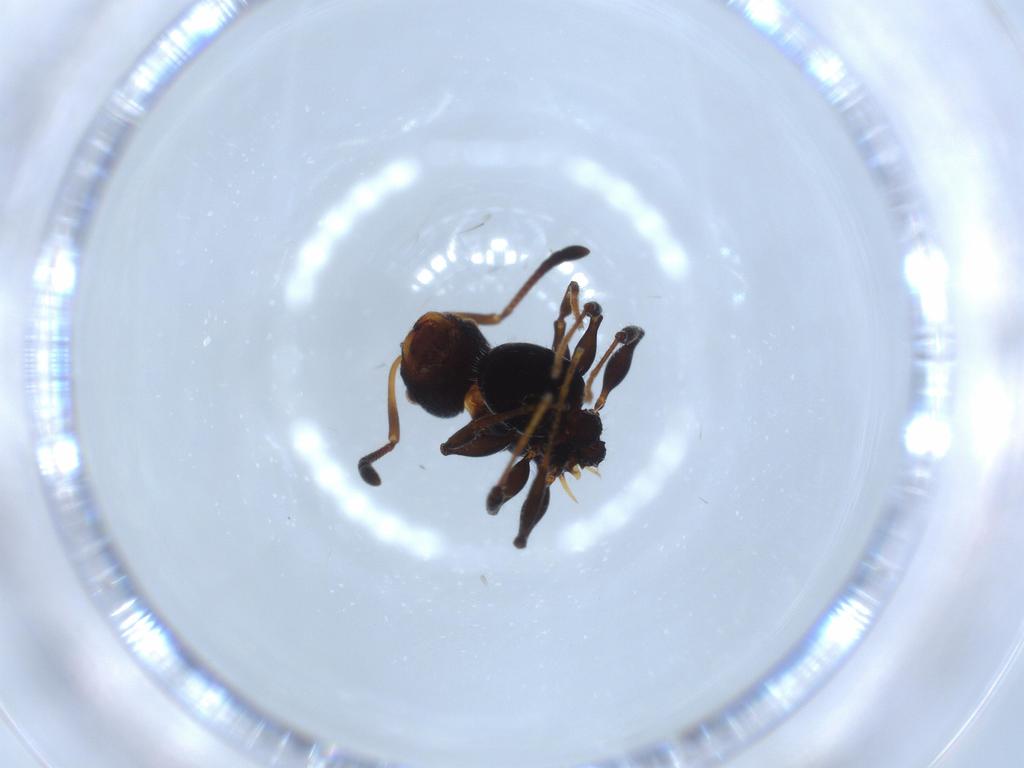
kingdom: Animalia
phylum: Arthropoda
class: Insecta
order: Hymenoptera
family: Formicidae
